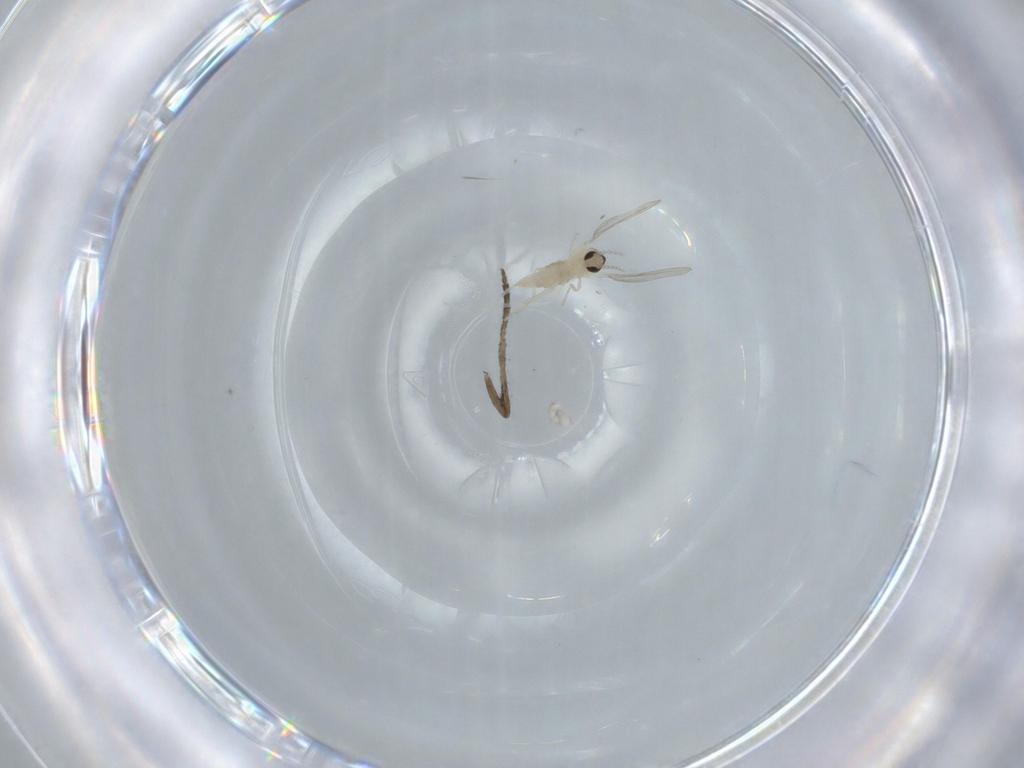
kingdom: Animalia
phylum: Arthropoda
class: Insecta
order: Diptera
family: Cecidomyiidae
